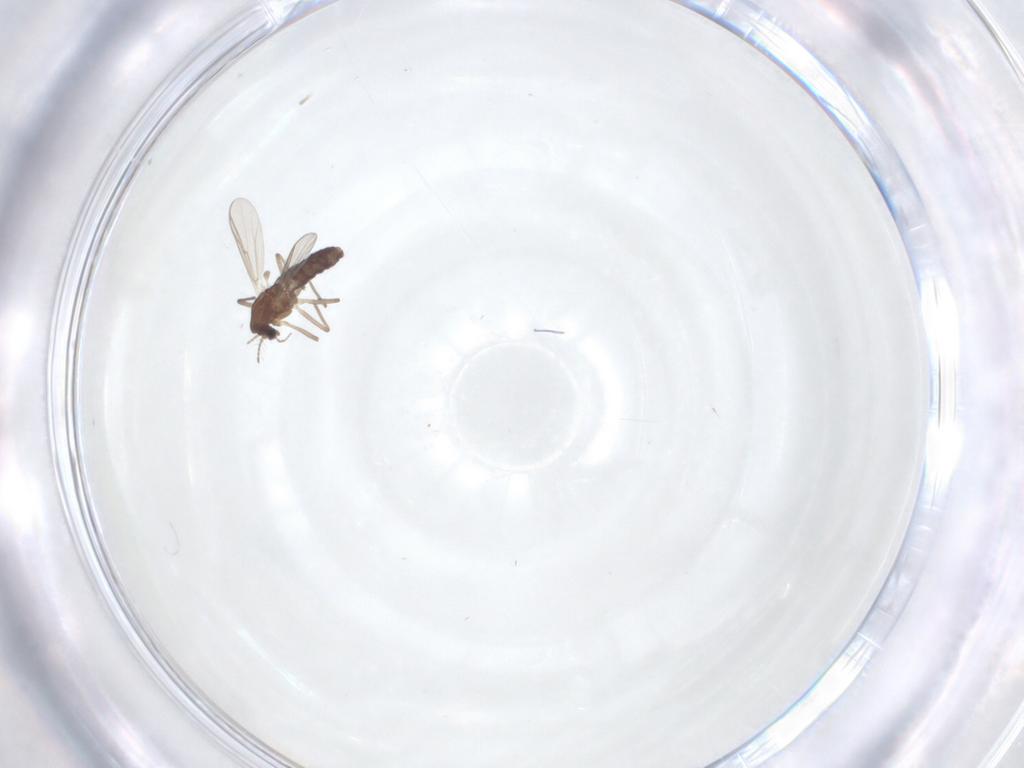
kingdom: Animalia
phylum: Arthropoda
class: Insecta
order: Diptera
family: Chironomidae
